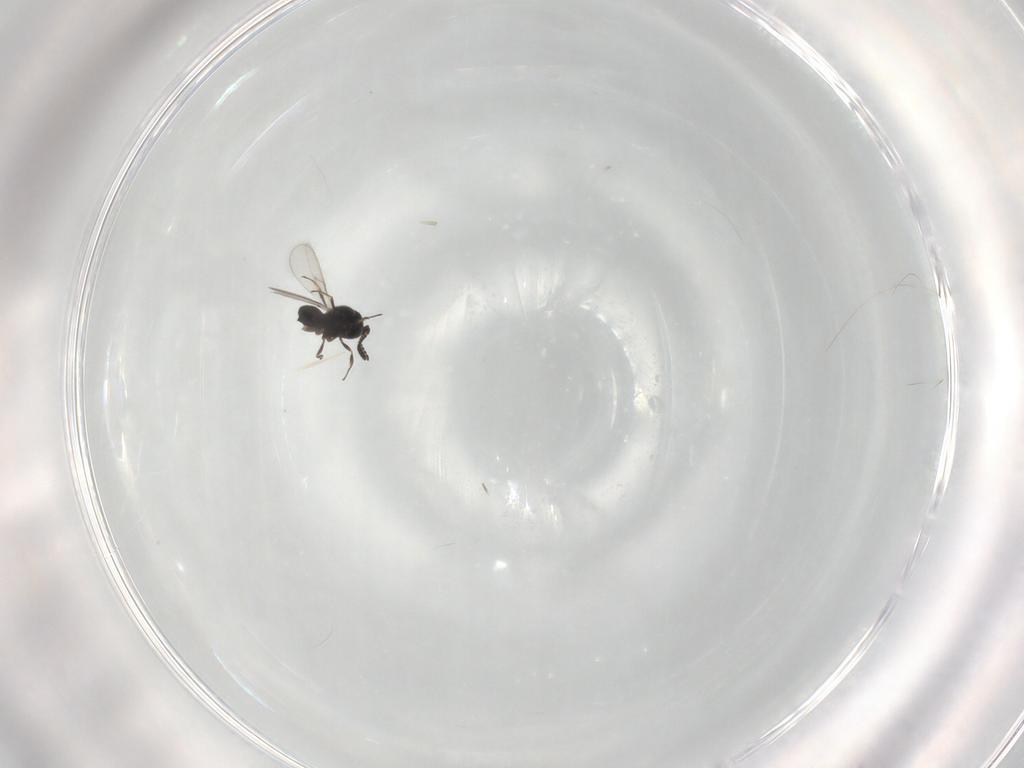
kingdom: Animalia
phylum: Arthropoda
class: Insecta
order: Hymenoptera
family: Scelionidae
